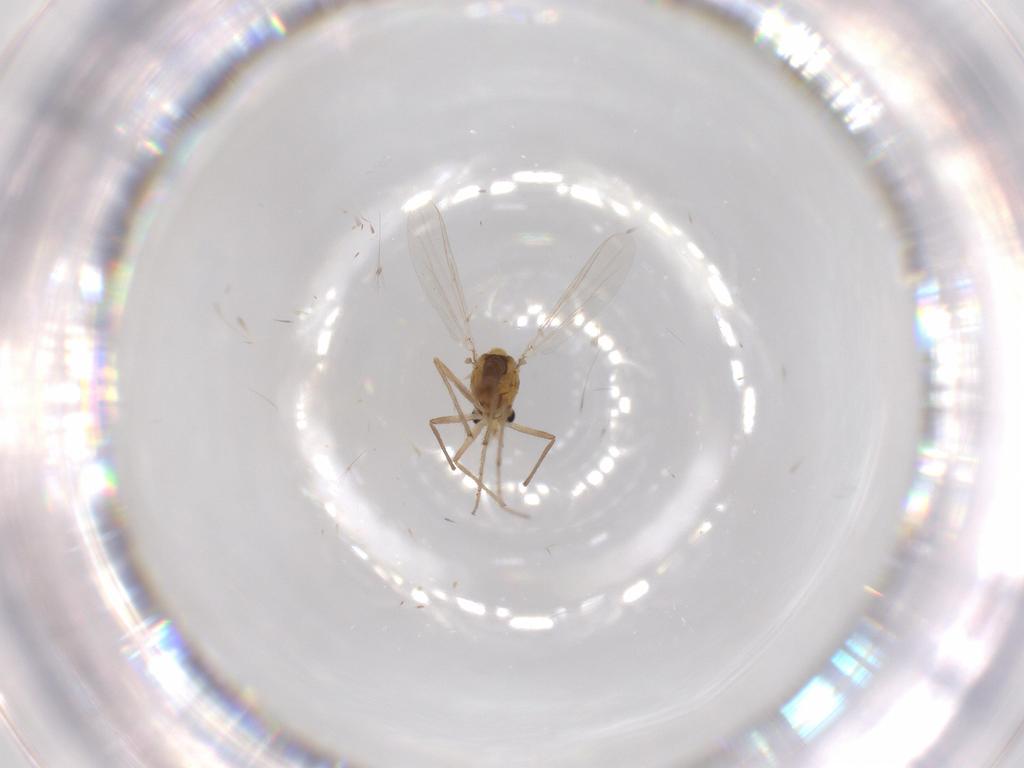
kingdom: Animalia
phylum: Arthropoda
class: Insecta
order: Diptera
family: Chironomidae
